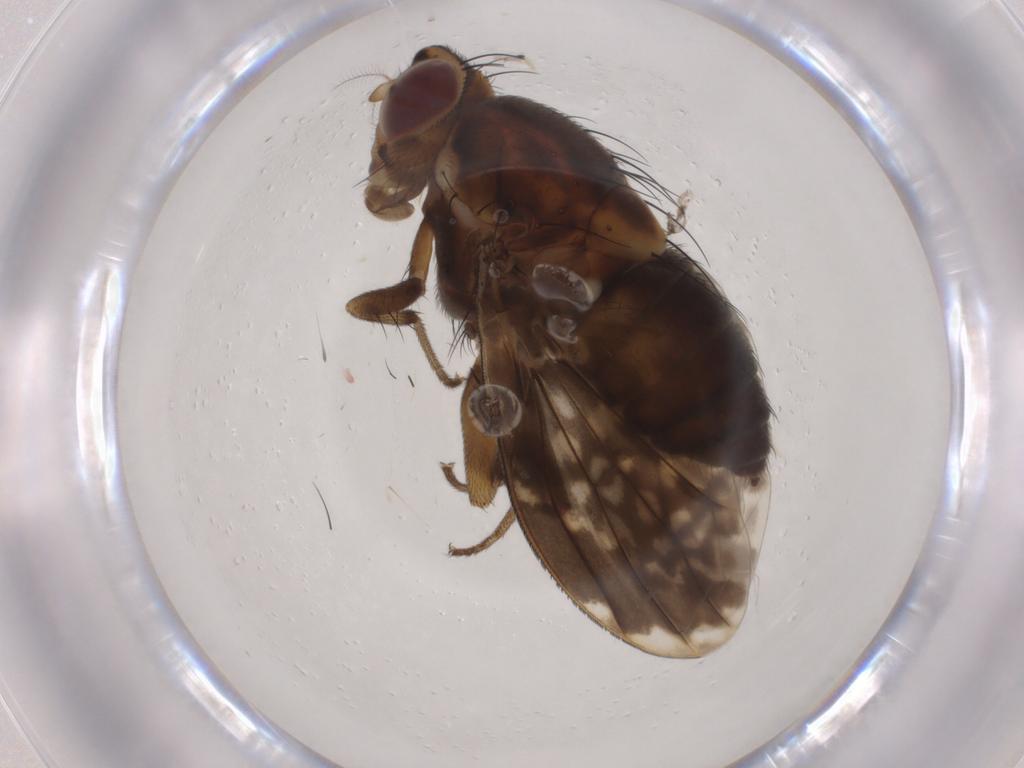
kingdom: Animalia
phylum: Arthropoda
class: Insecta
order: Diptera
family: Lauxaniidae
